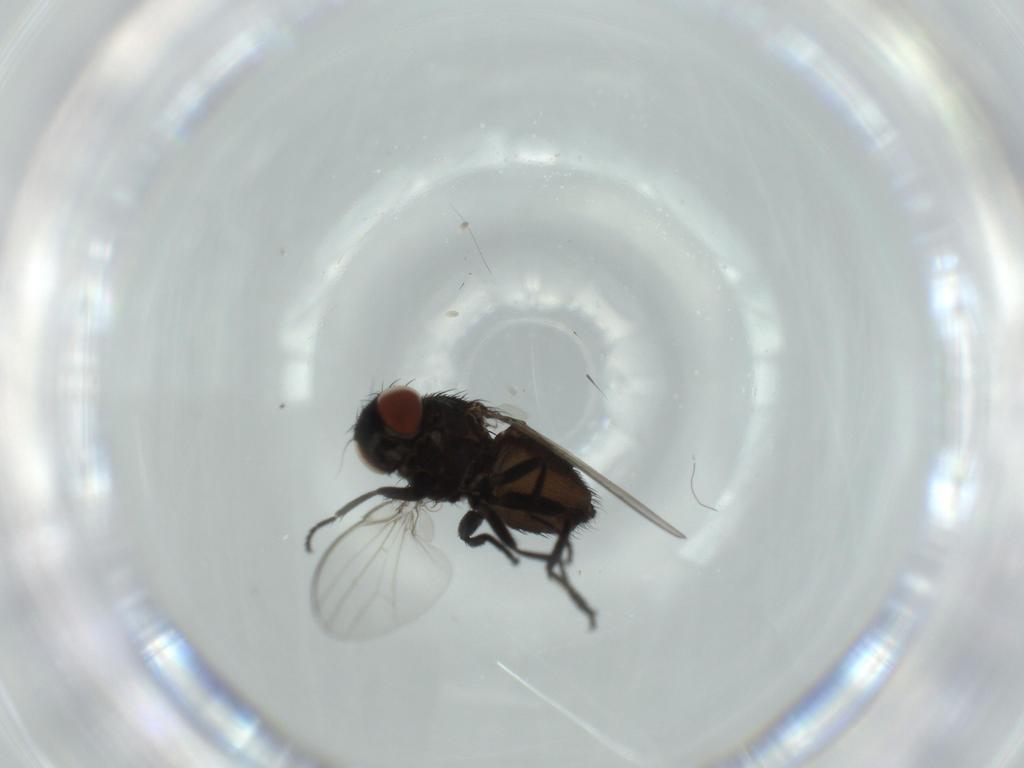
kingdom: Animalia
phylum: Arthropoda
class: Insecta
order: Diptera
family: Milichiidae
